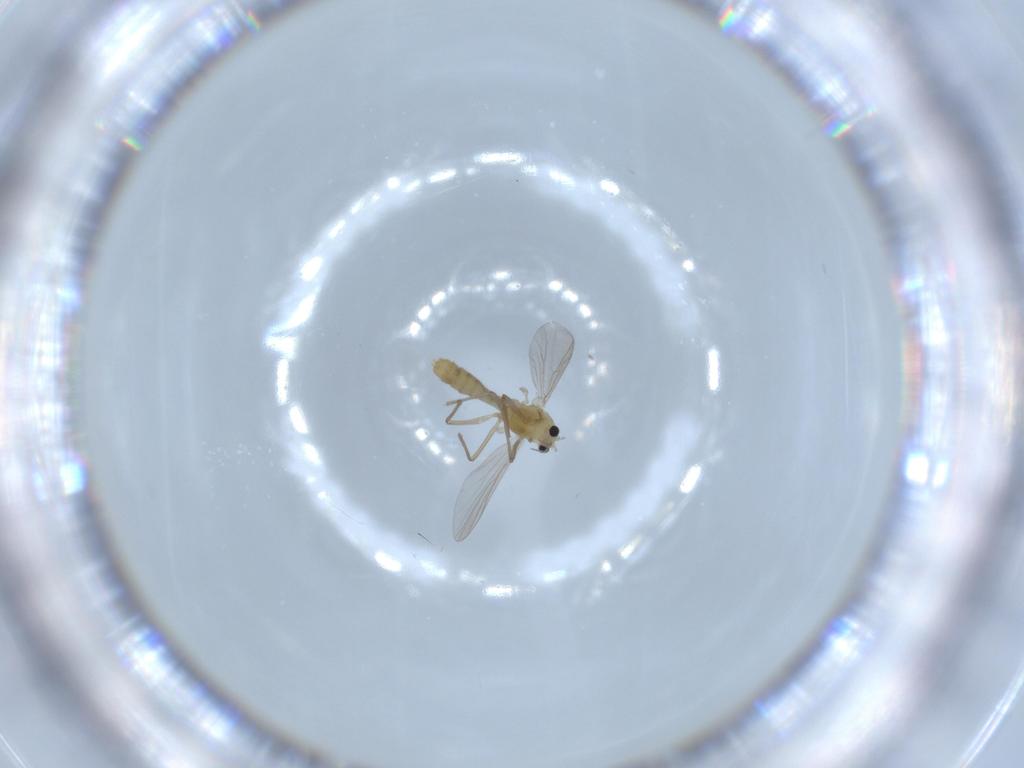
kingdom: Animalia
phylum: Arthropoda
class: Insecta
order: Diptera
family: Chironomidae
